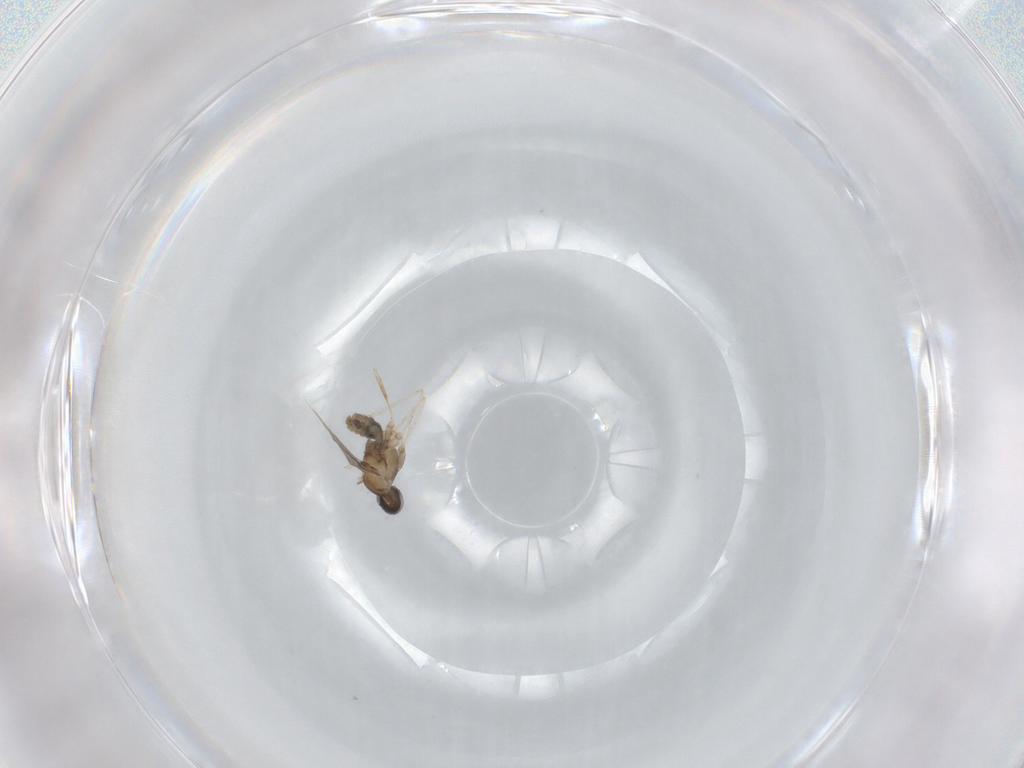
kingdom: Animalia
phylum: Arthropoda
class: Insecta
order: Diptera
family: Cecidomyiidae
